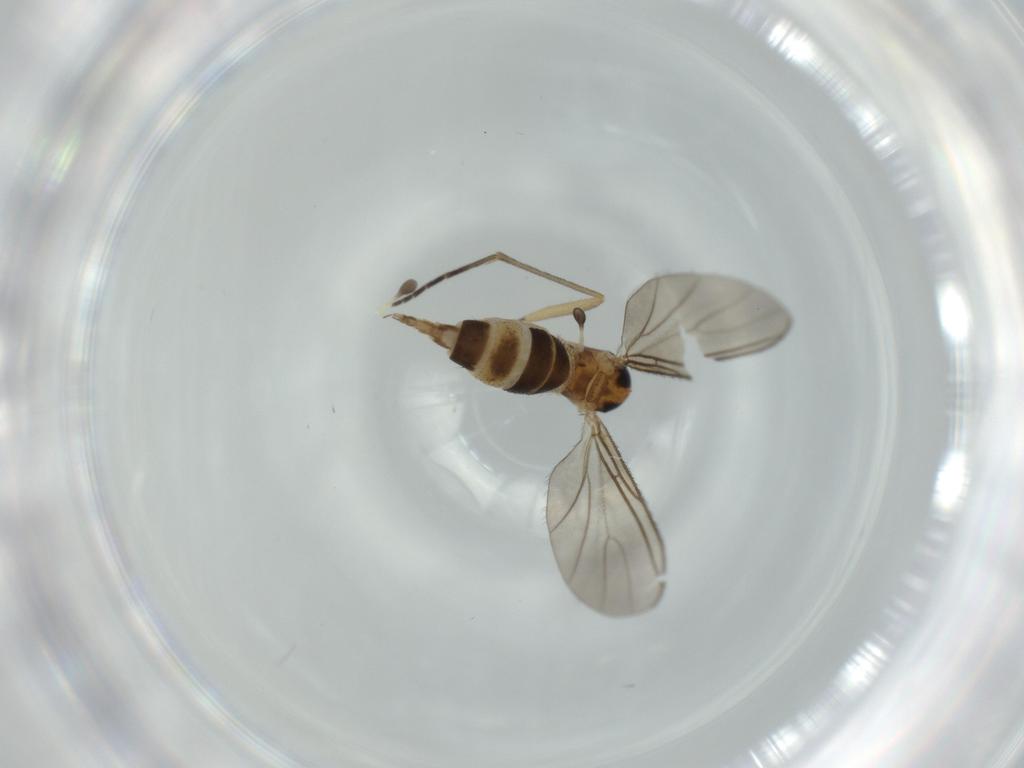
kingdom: Animalia
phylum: Arthropoda
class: Insecta
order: Diptera
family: Sciaridae
